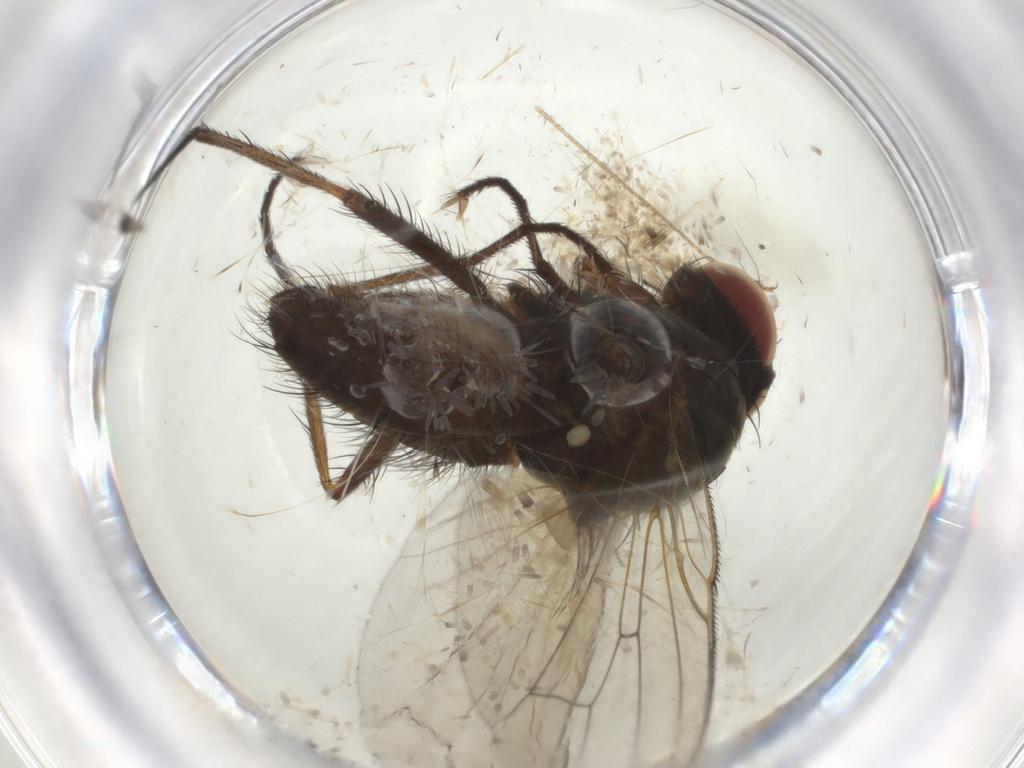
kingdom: Animalia
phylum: Arthropoda
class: Insecta
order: Diptera
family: Anthomyiidae
